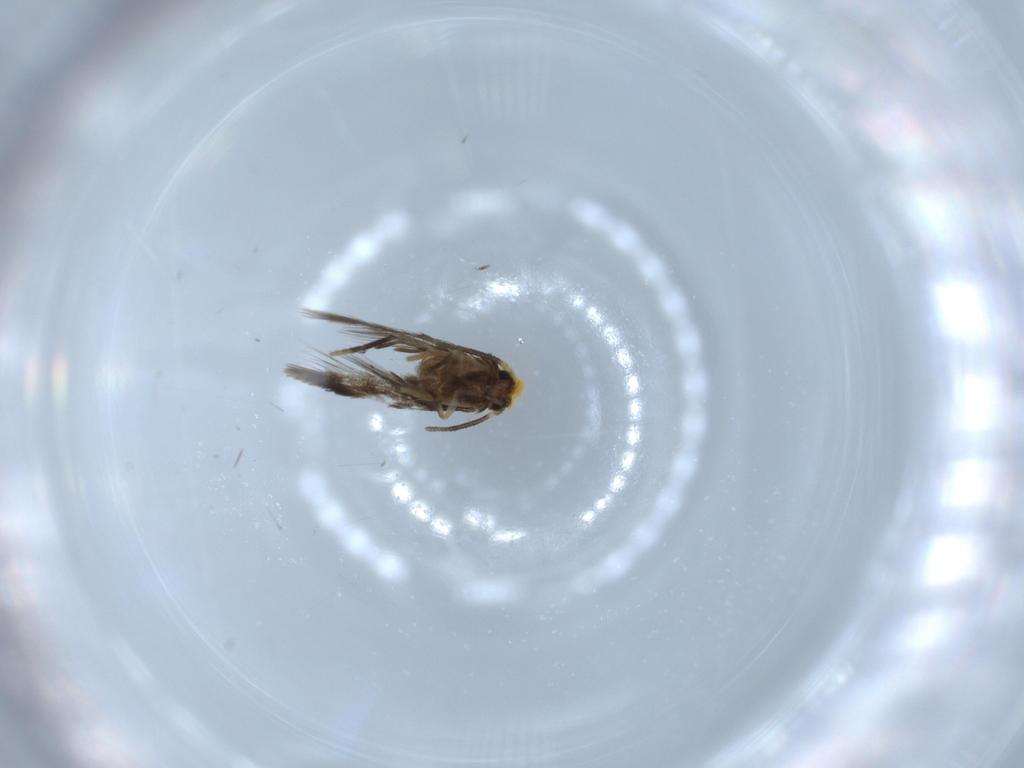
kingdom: Animalia
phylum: Arthropoda
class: Insecta
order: Lepidoptera
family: Nepticulidae
